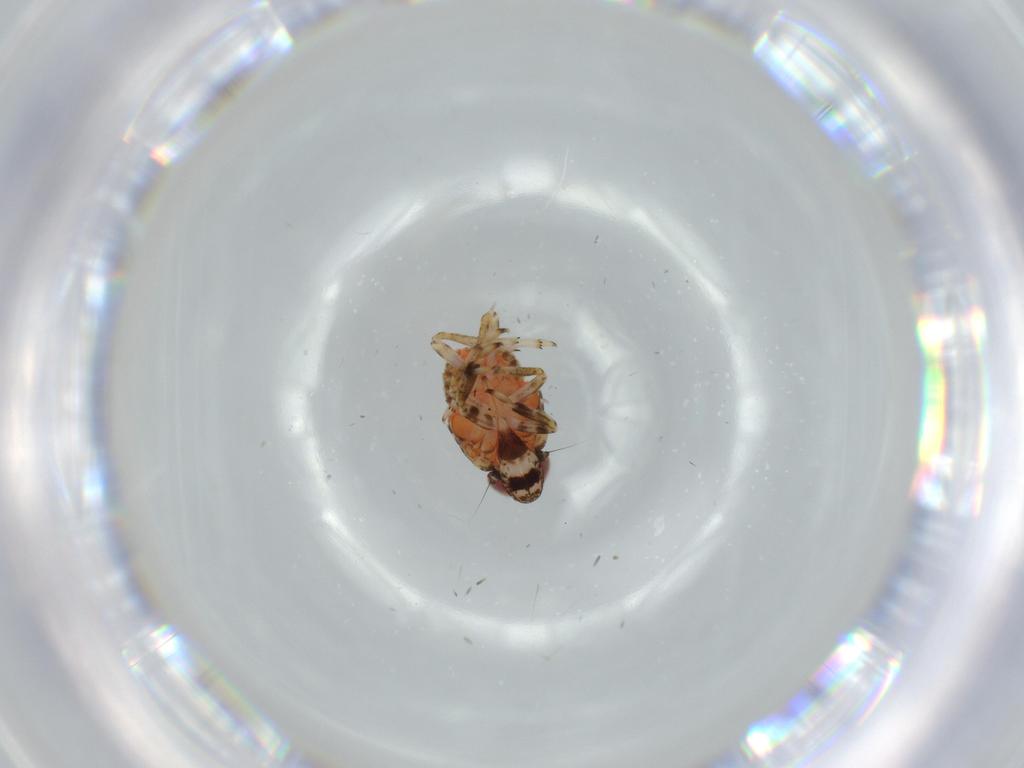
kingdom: Animalia
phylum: Arthropoda
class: Insecta
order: Hemiptera
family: Issidae
